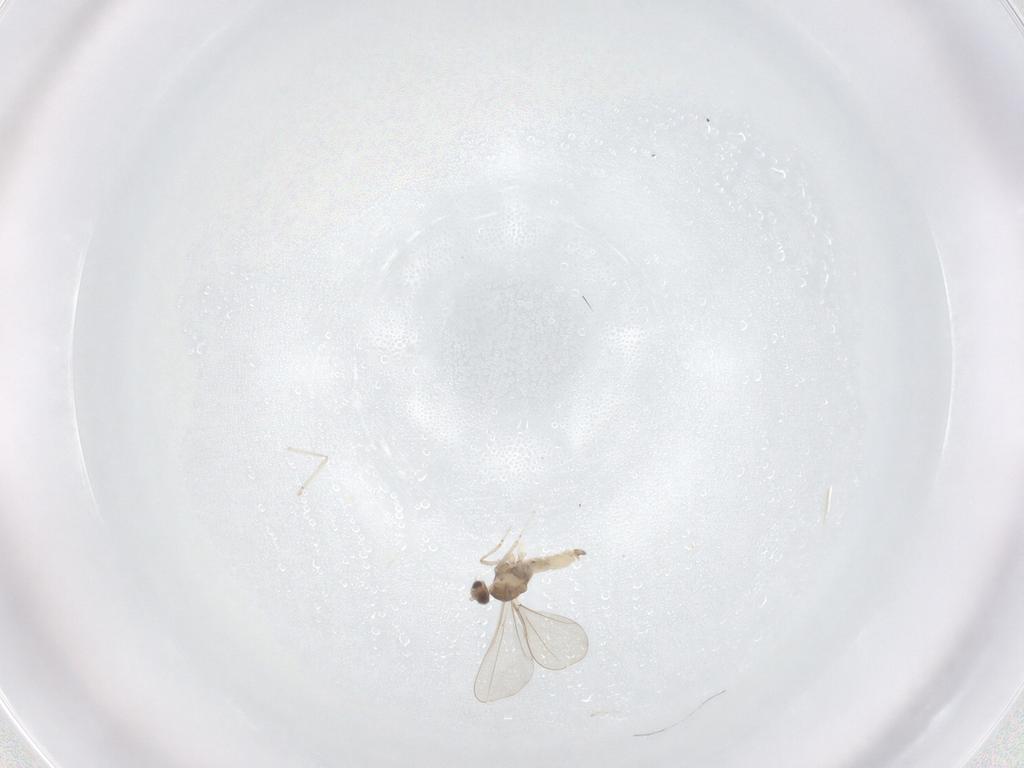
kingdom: Animalia
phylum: Arthropoda
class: Insecta
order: Diptera
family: Cecidomyiidae
